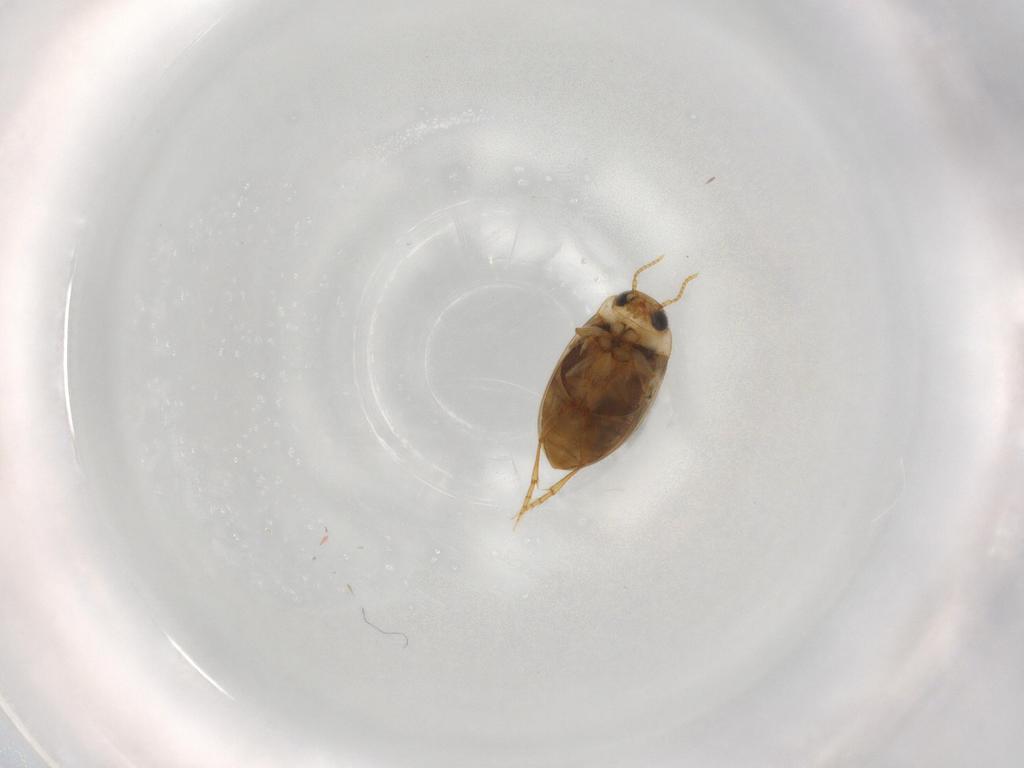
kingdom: Animalia
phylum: Arthropoda
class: Insecta
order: Coleoptera
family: Dytiscidae
